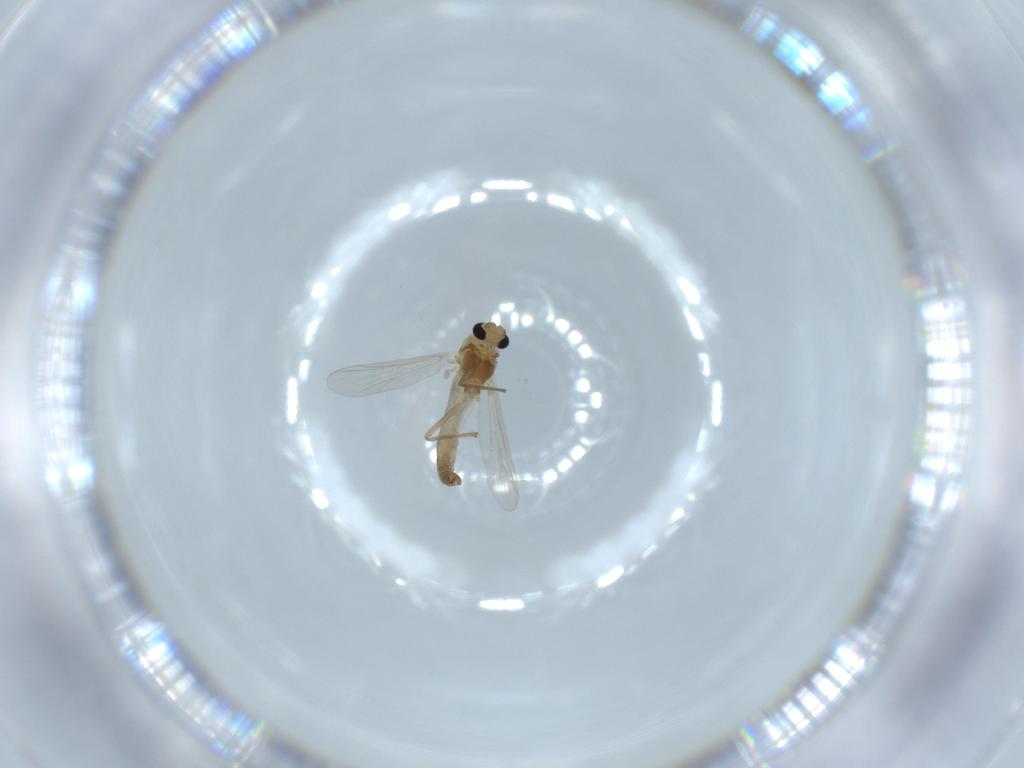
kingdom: Animalia
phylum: Arthropoda
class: Insecta
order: Diptera
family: Chironomidae
